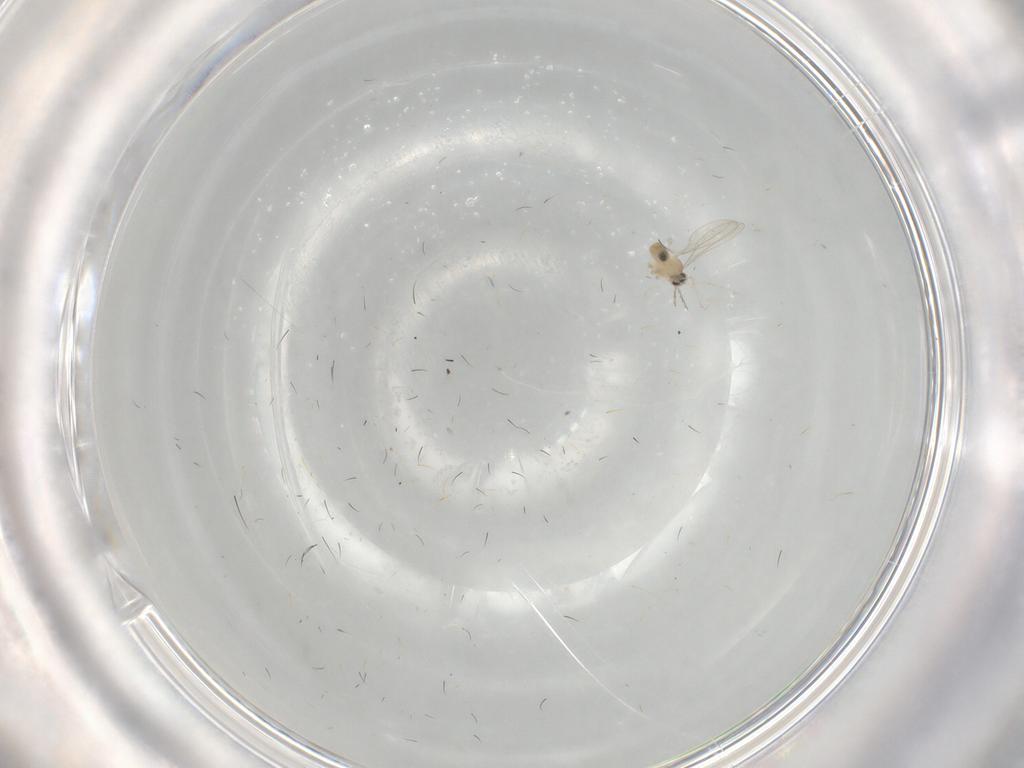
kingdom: Animalia
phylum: Arthropoda
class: Insecta
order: Diptera
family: Cecidomyiidae
